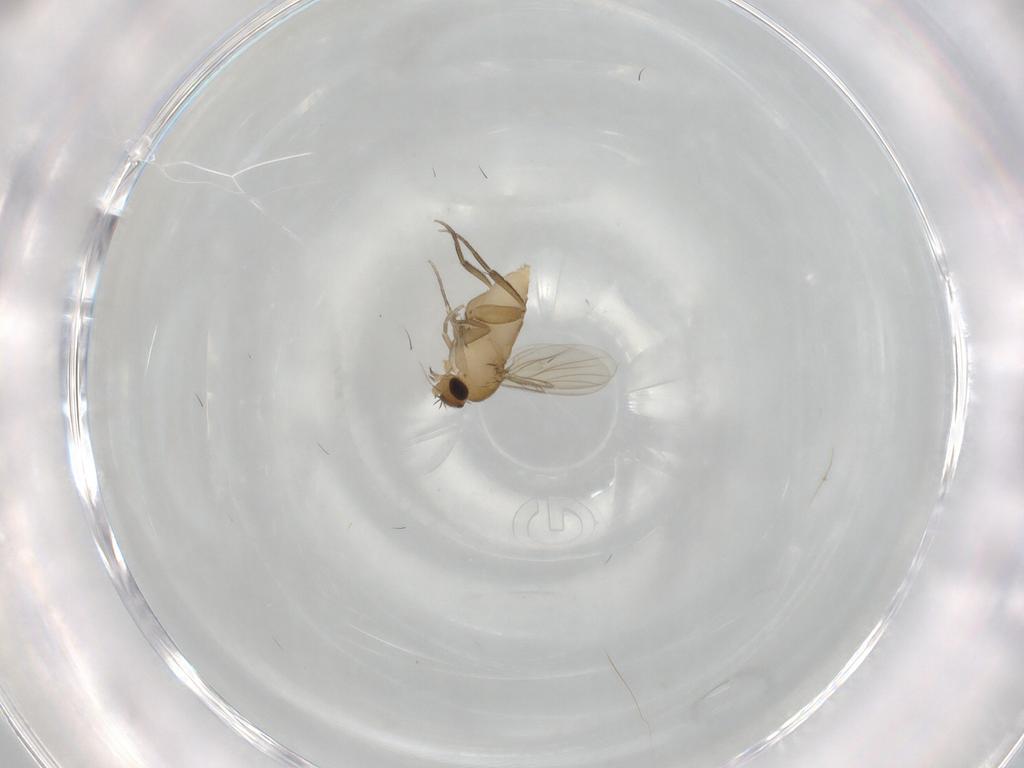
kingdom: Animalia
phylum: Arthropoda
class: Insecta
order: Diptera
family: Phoridae
